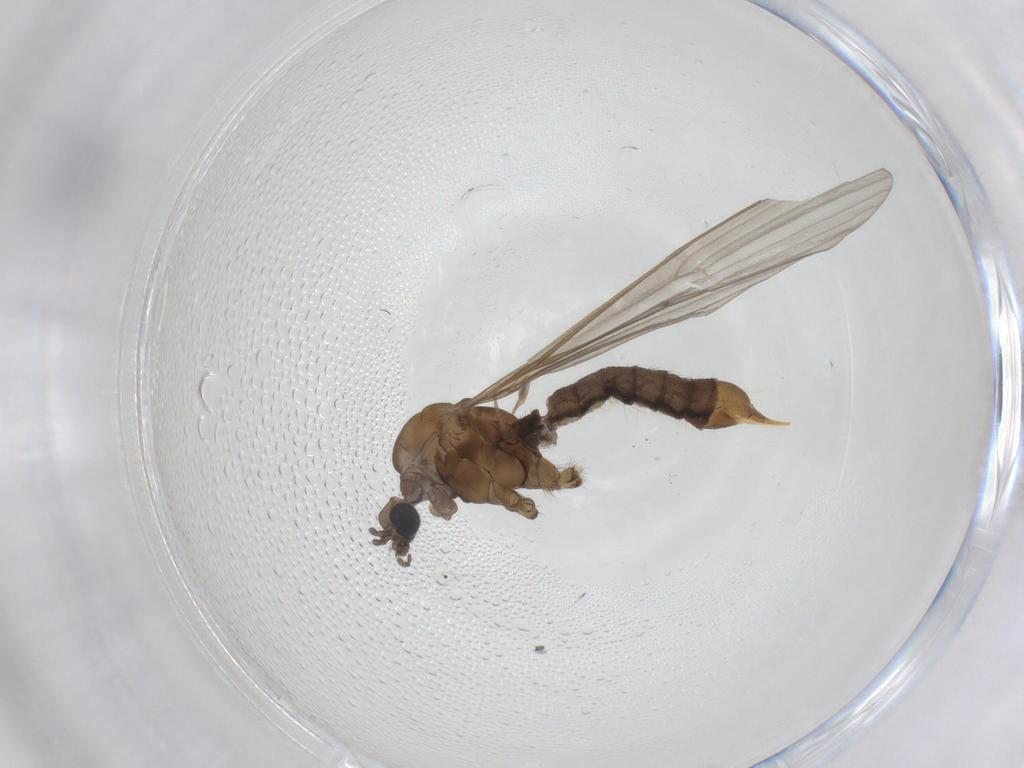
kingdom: Animalia
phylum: Arthropoda
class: Insecta
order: Diptera
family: Limoniidae
